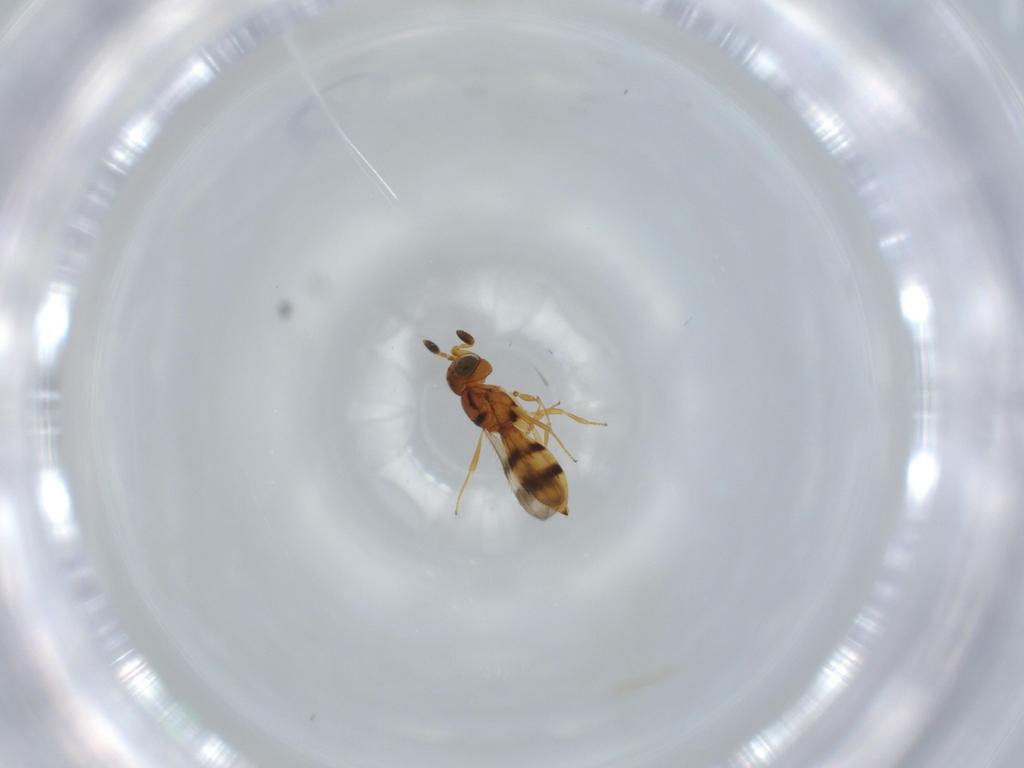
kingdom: Animalia
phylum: Arthropoda
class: Insecta
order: Hymenoptera
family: Scelionidae
